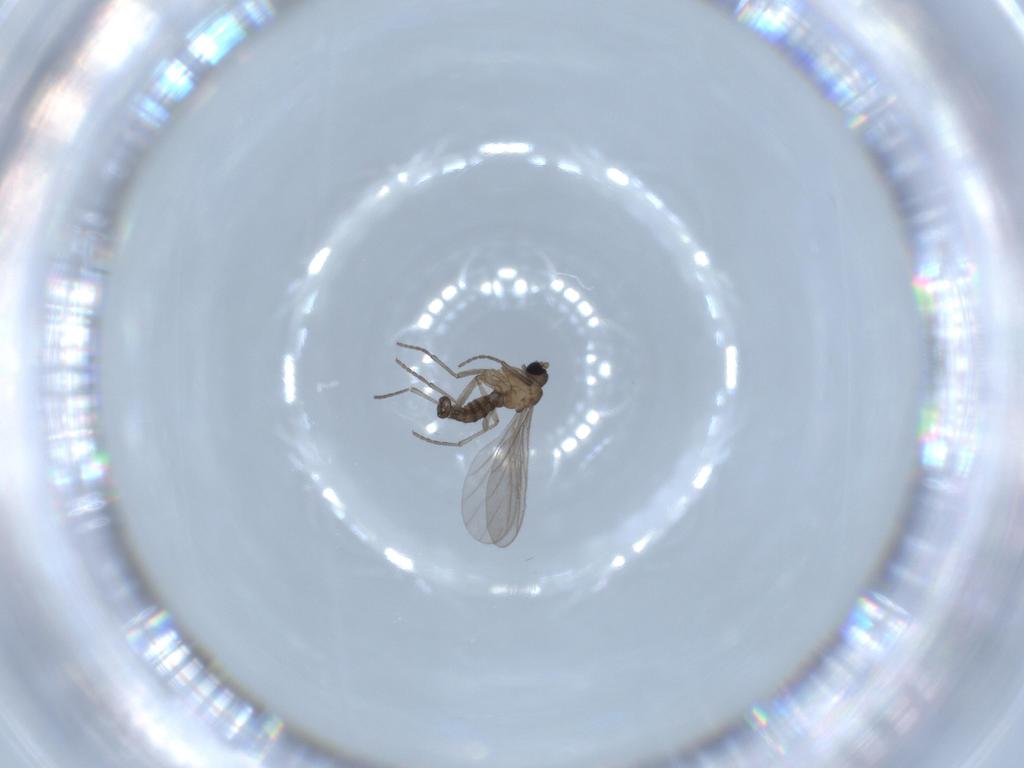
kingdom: Animalia
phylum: Arthropoda
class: Insecta
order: Diptera
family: Sciaridae
